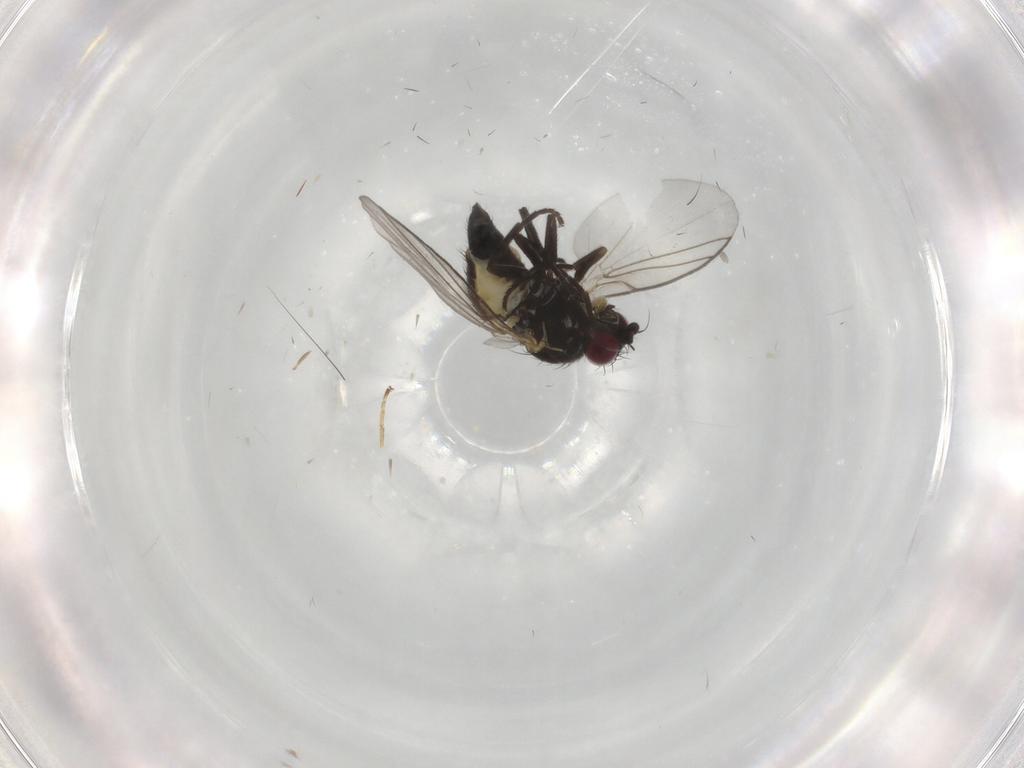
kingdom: Animalia
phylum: Arthropoda
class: Insecta
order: Diptera
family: Agromyzidae
